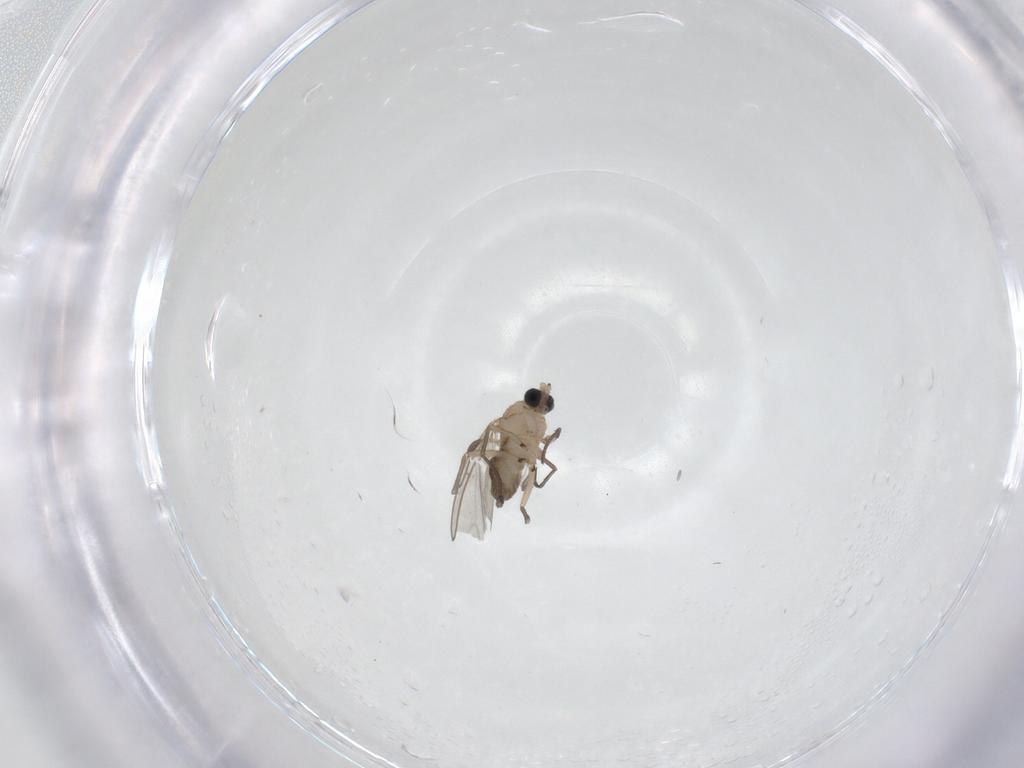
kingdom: Animalia
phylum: Arthropoda
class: Insecta
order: Diptera
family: Sciaridae
